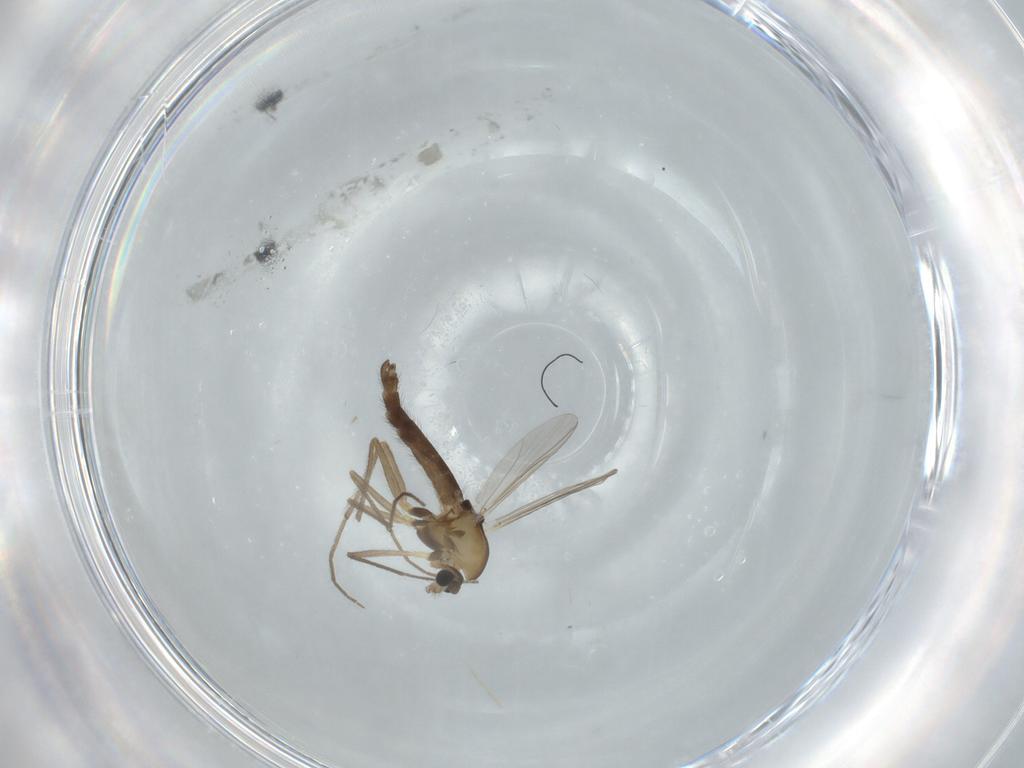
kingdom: Animalia
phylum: Arthropoda
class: Insecta
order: Diptera
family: Chironomidae
